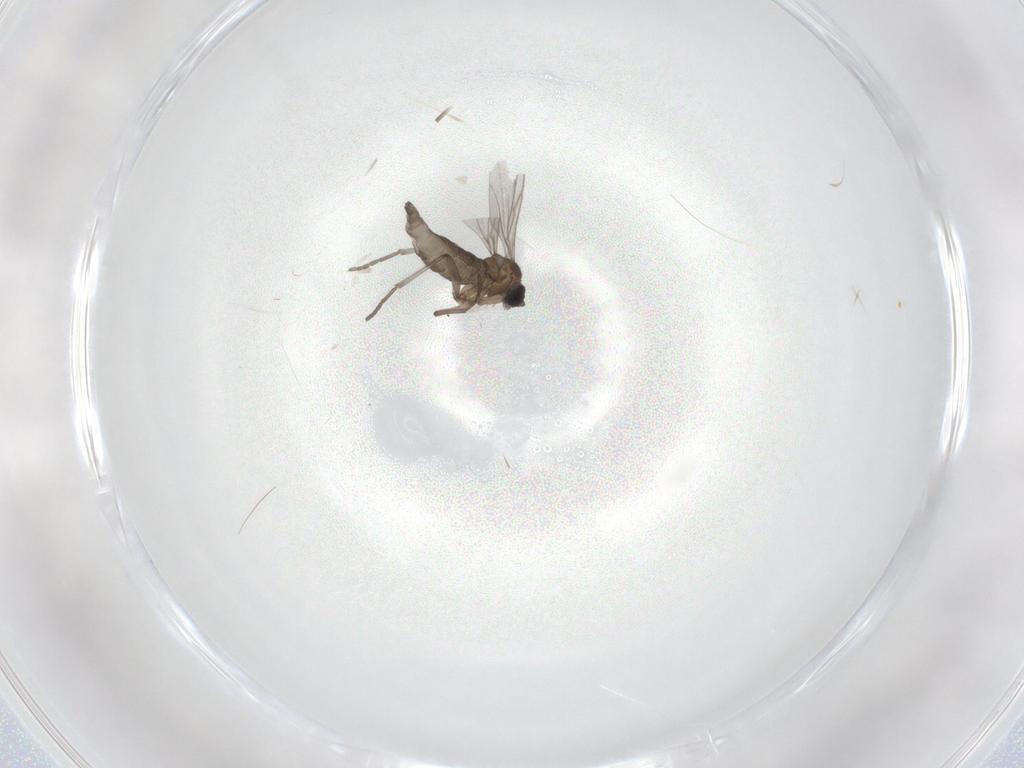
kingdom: Animalia
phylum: Arthropoda
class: Insecta
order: Diptera
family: Sciaridae
